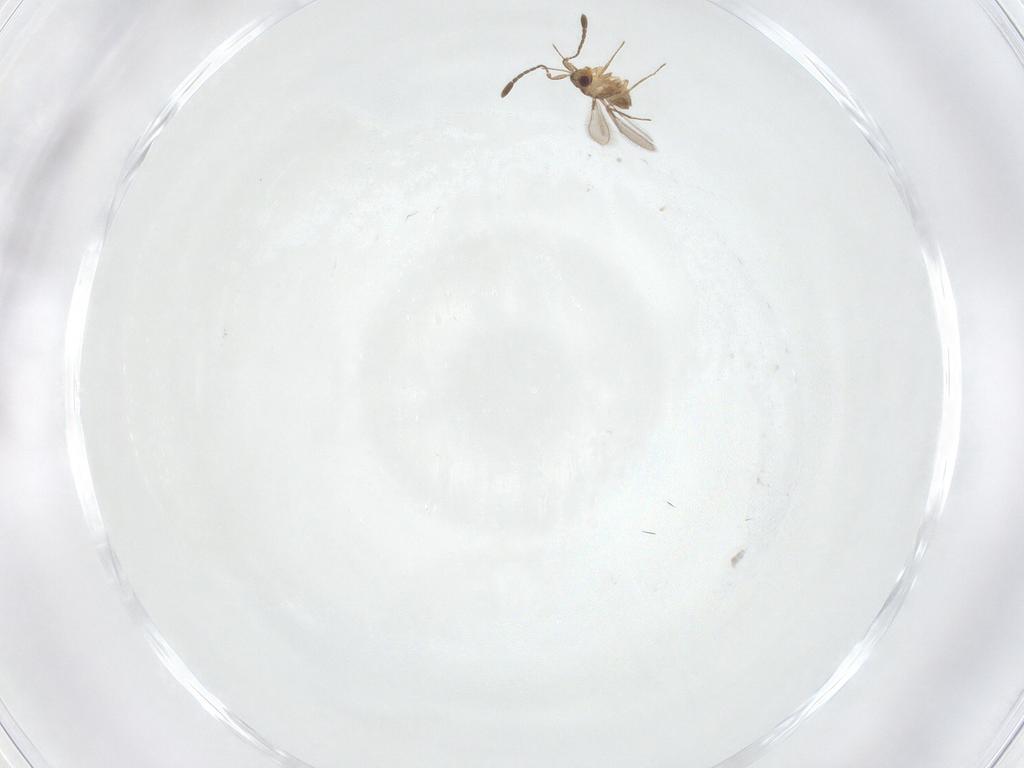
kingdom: Animalia
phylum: Arthropoda
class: Insecta
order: Hymenoptera
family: Mymaridae
